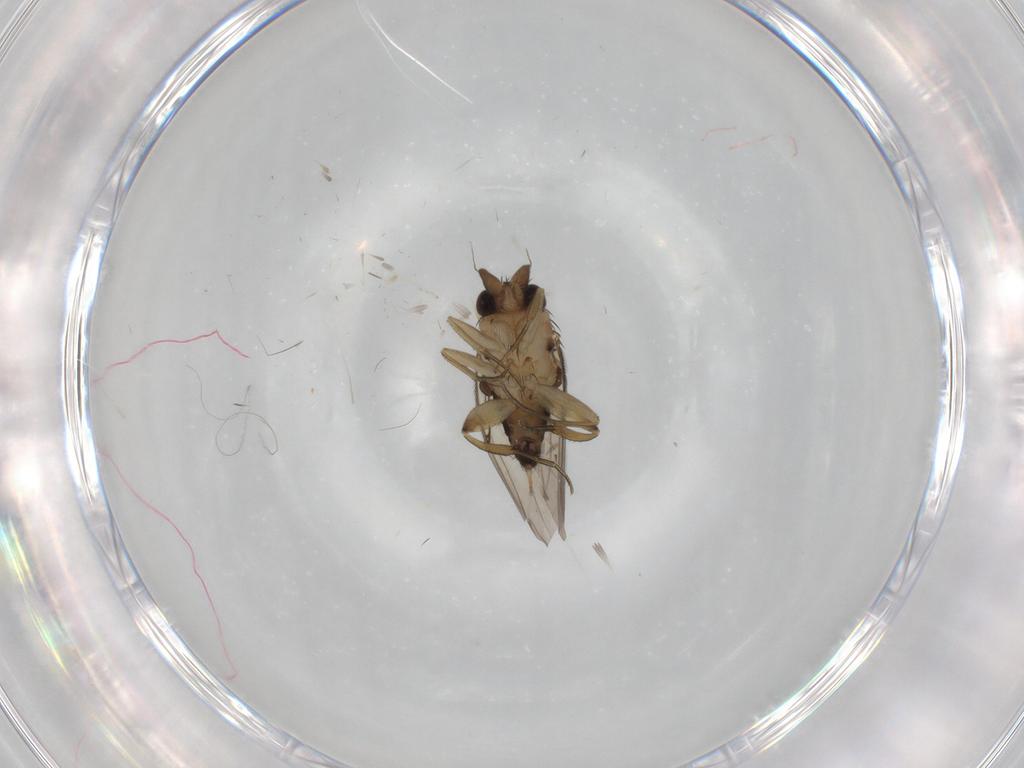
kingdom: Animalia
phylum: Arthropoda
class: Insecta
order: Diptera
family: Phoridae
